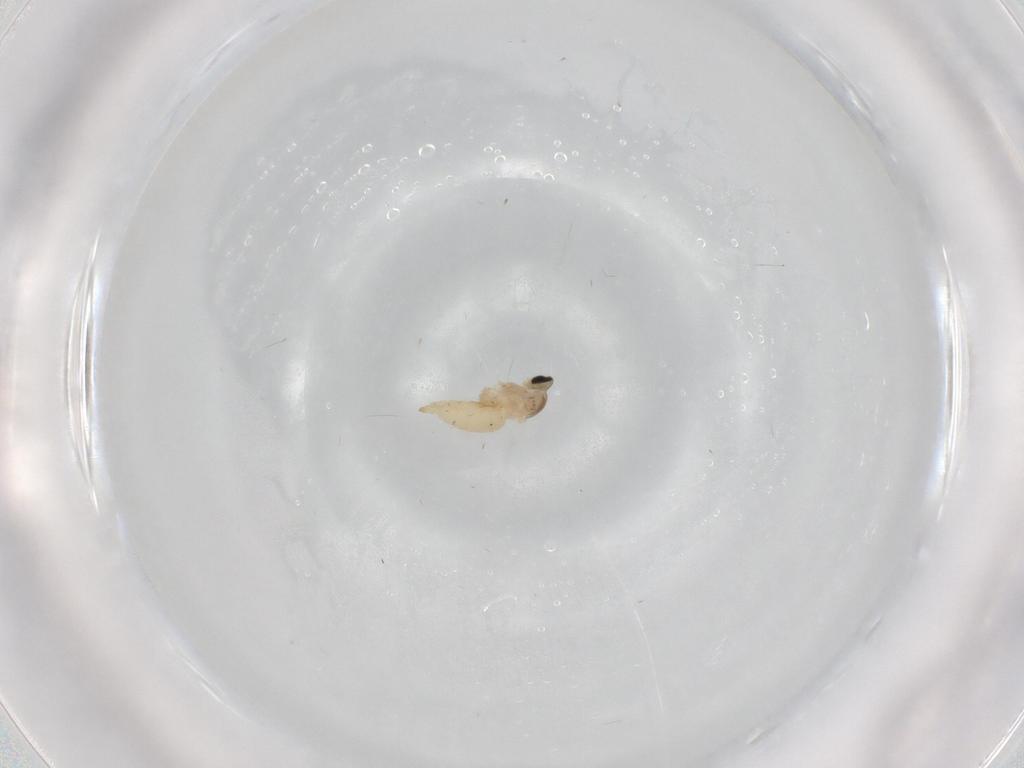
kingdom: Animalia
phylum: Arthropoda
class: Insecta
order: Diptera
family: Cecidomyiidae
